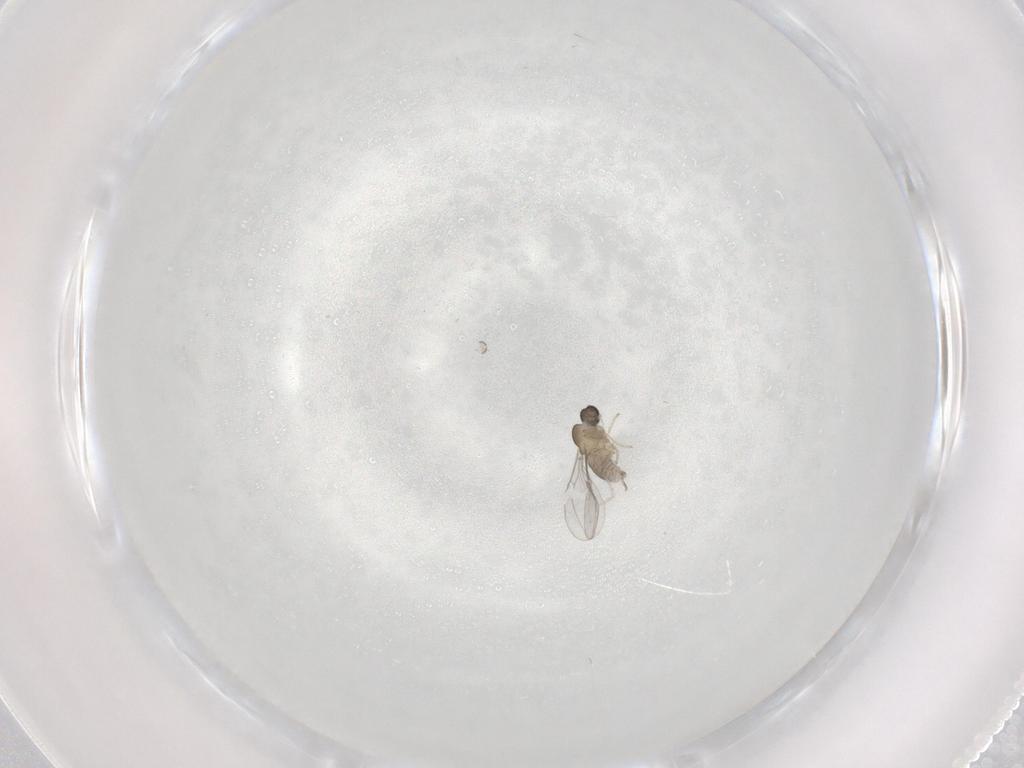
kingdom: Animalia
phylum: Arthropoda
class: Insecta
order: Diptera
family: Cecidomyiidae
